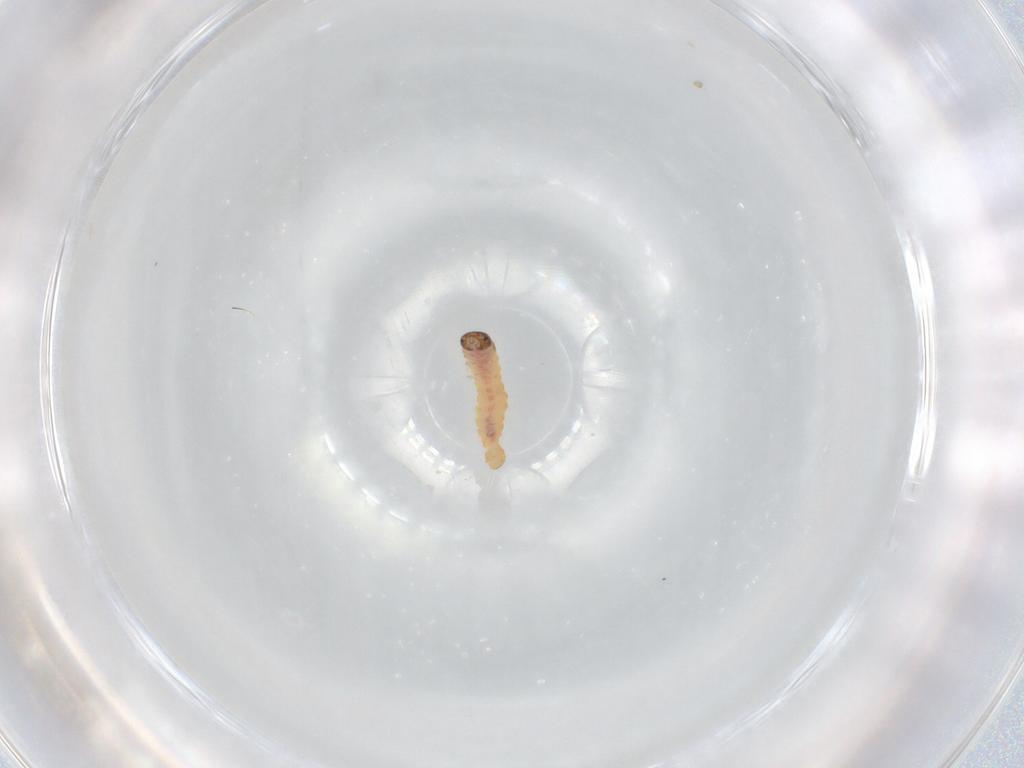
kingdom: Animalia
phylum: Arthropoda
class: Insecta
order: Lepidoptera
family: Oecophoridae
